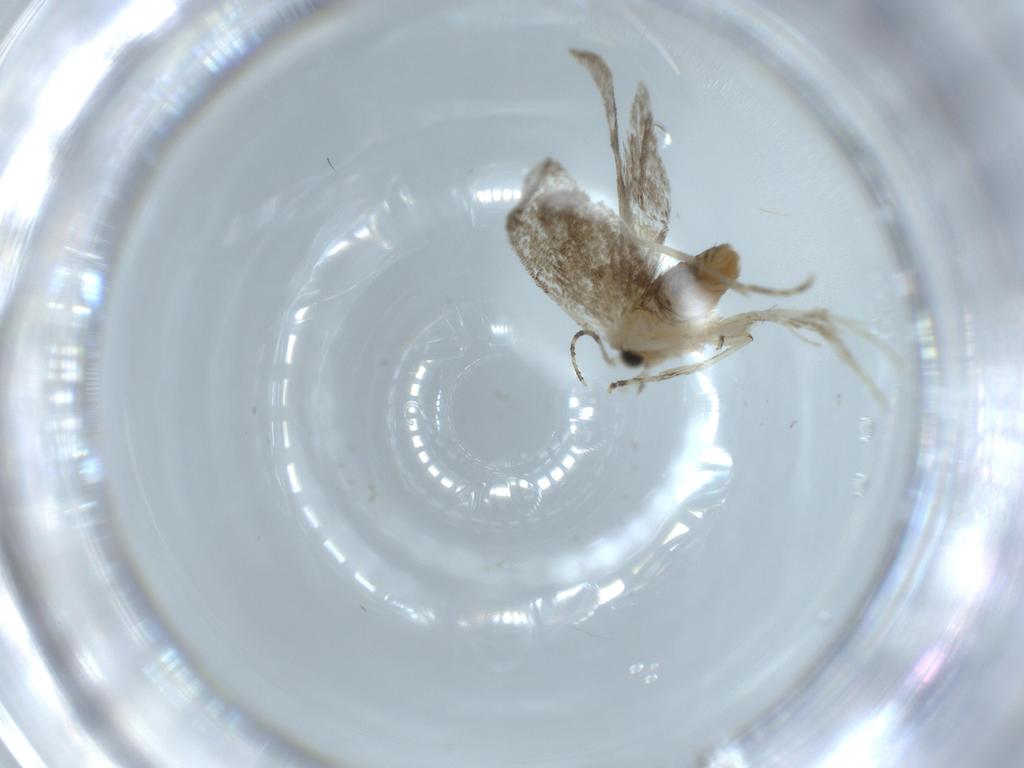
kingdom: Animalia
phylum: Arthropoda
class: Insecta
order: Lepidoptera
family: Tineidae
